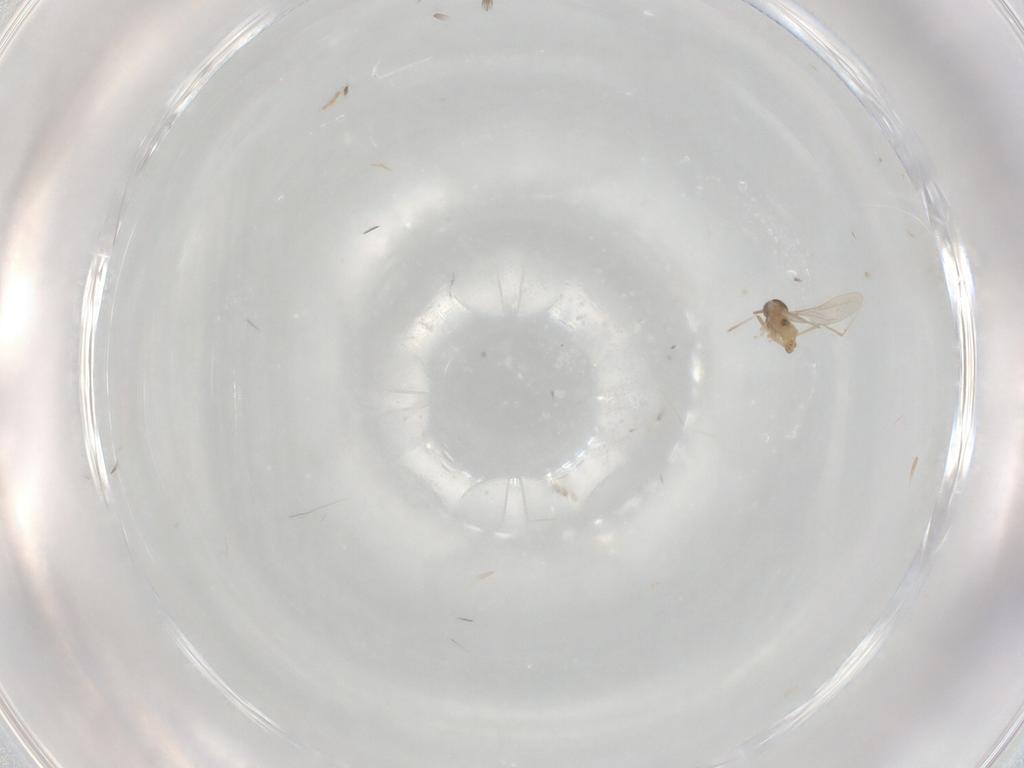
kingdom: Animalia
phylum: Arthropoda
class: Insecta
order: Diptera
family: Cecidomyiidae
